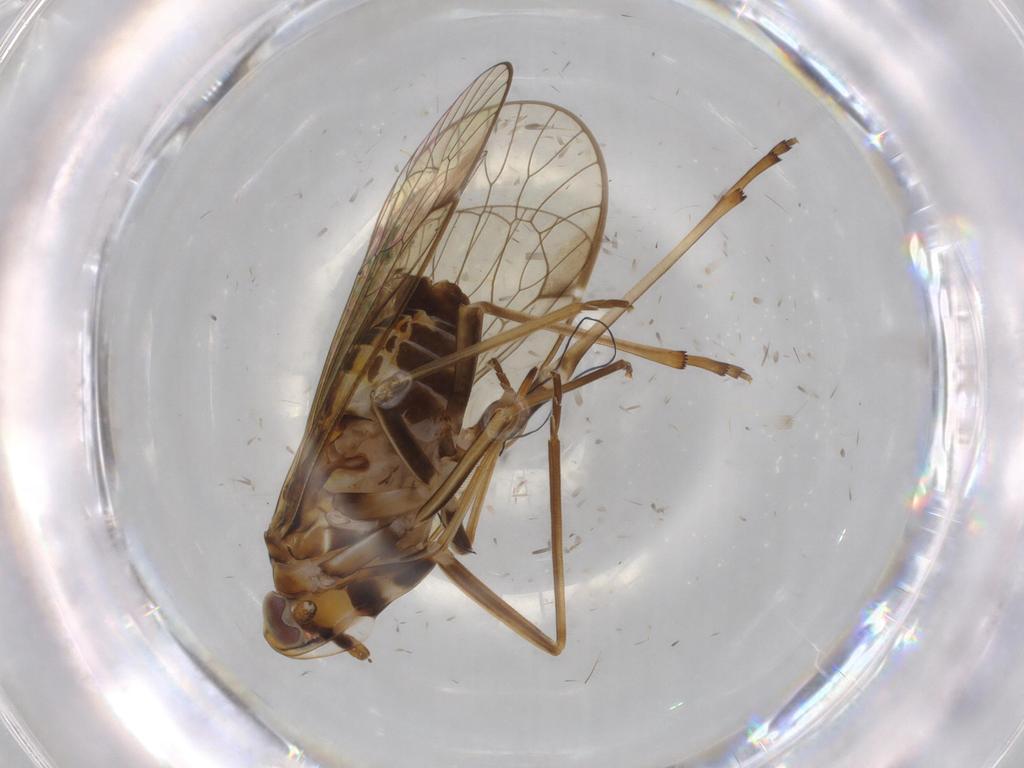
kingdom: Animalia
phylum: Arthropoda
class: Insecta
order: Hemiptera
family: Kinnaridae
